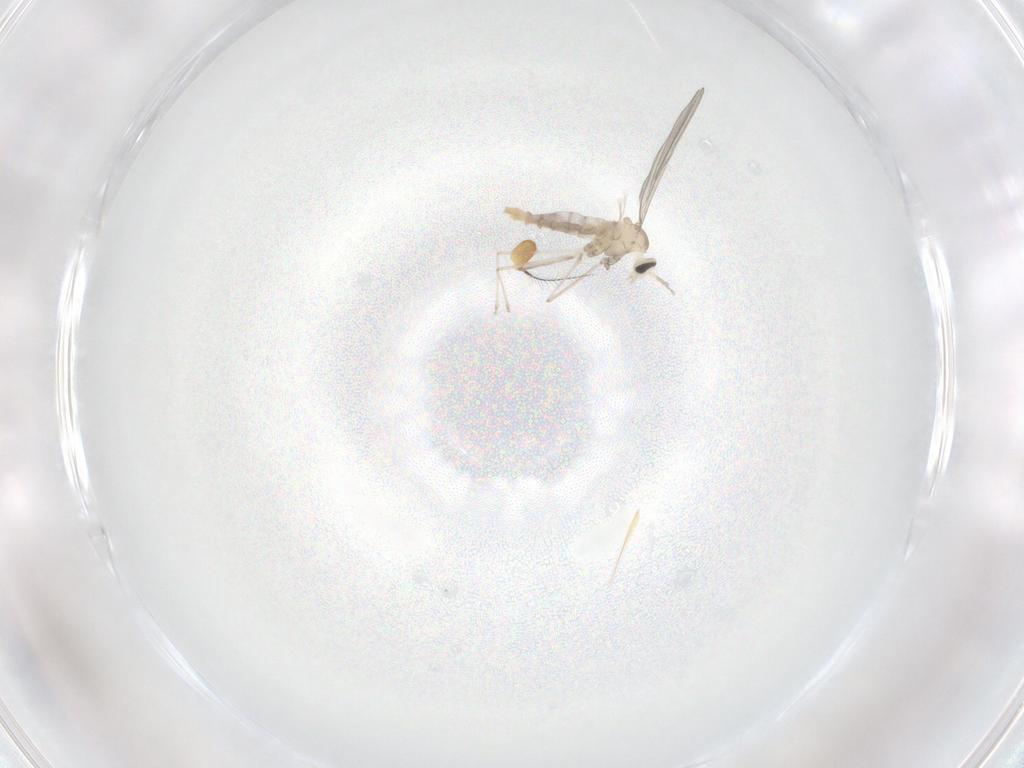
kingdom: Animalia
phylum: Arthropoda
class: Insecta
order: Diptera
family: Cecidomyiidae
